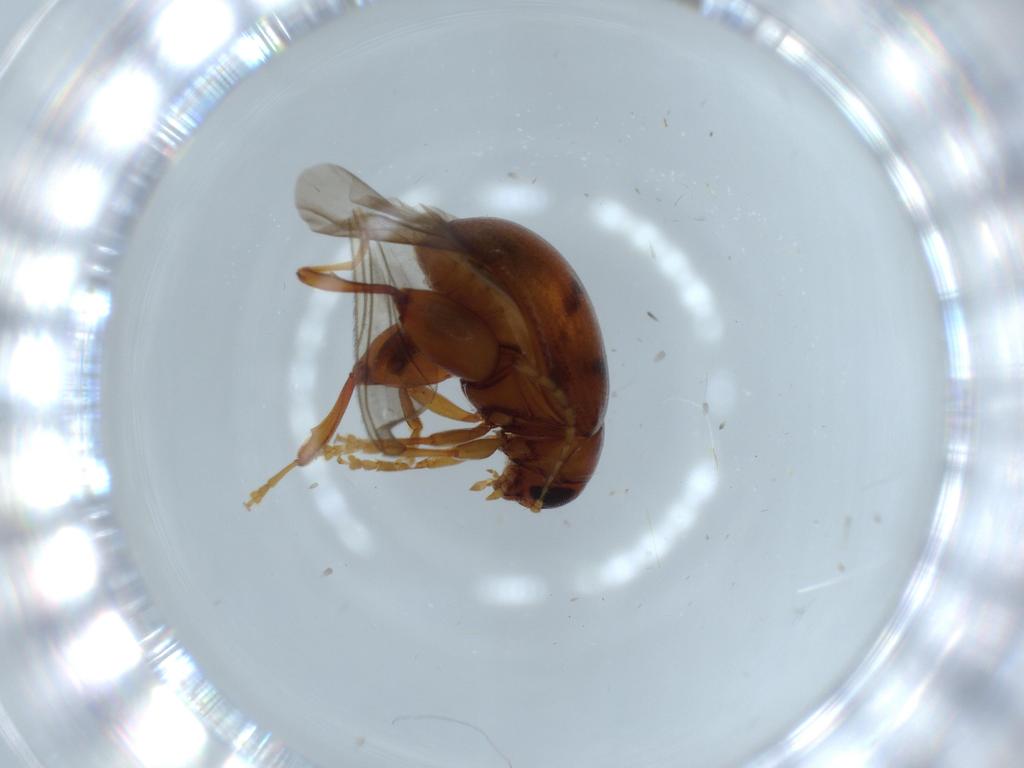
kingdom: Animalia
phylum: Arthropoda
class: Insecta
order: Coleoptera
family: Chrysomelidae
